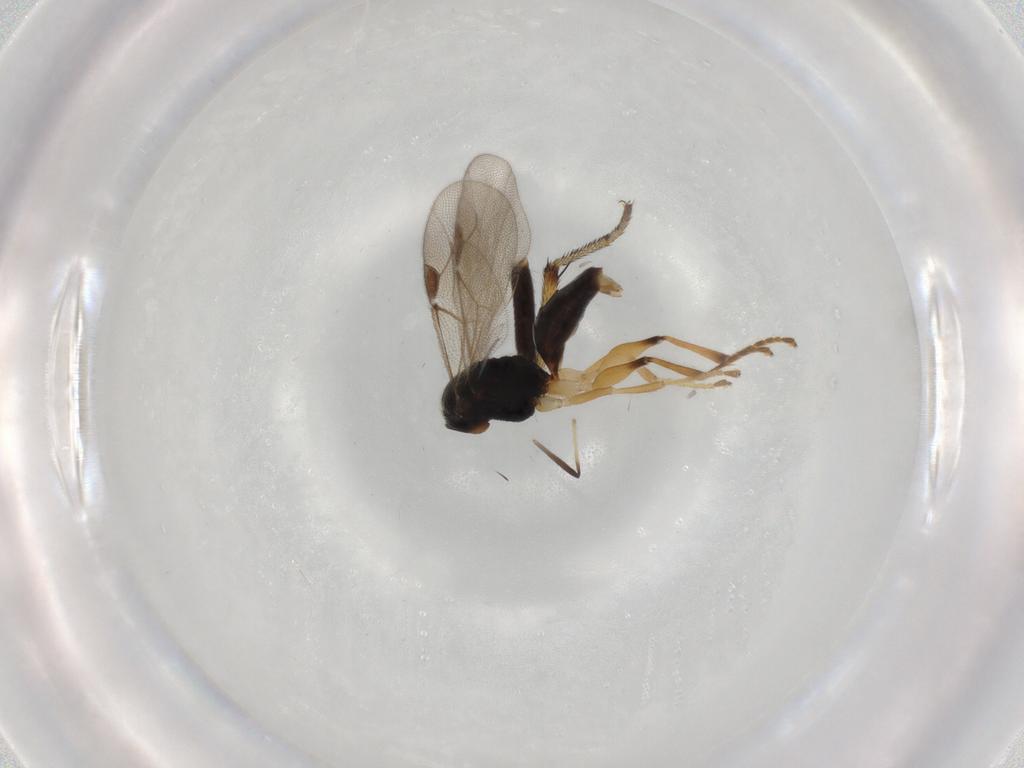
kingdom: Animalia
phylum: Arthropoda
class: Insecta
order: Hymenoptera
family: Dryinidae
